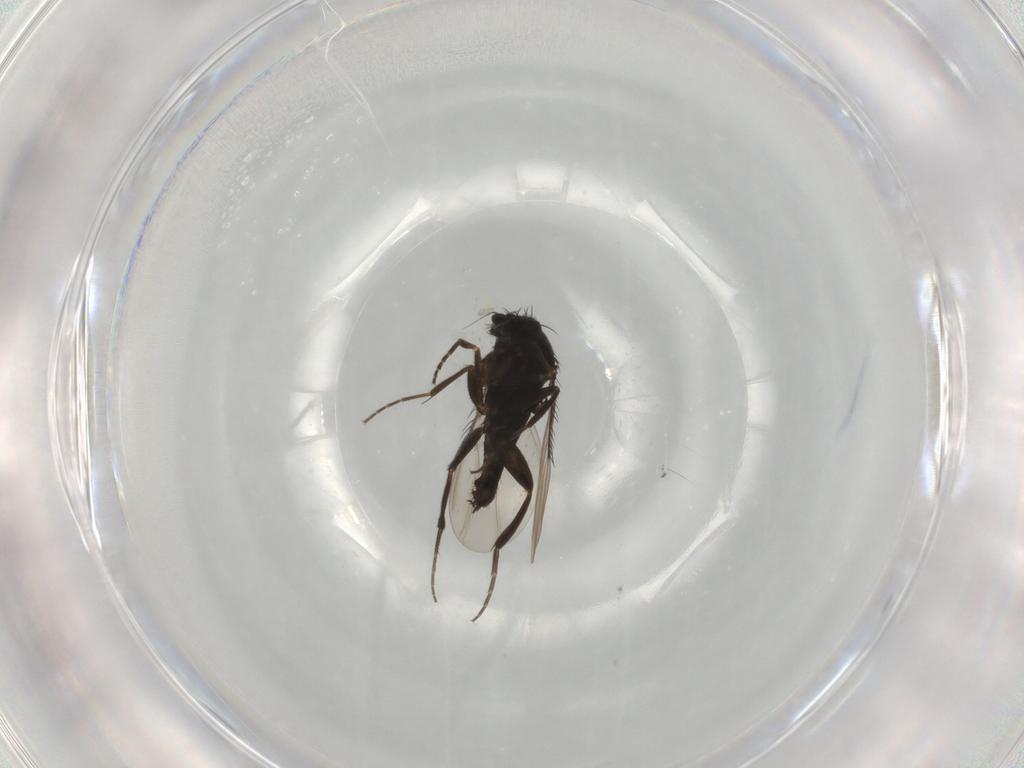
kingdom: Animalia
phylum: Arthropoda
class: Insecta
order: Diptera
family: Phoridae
